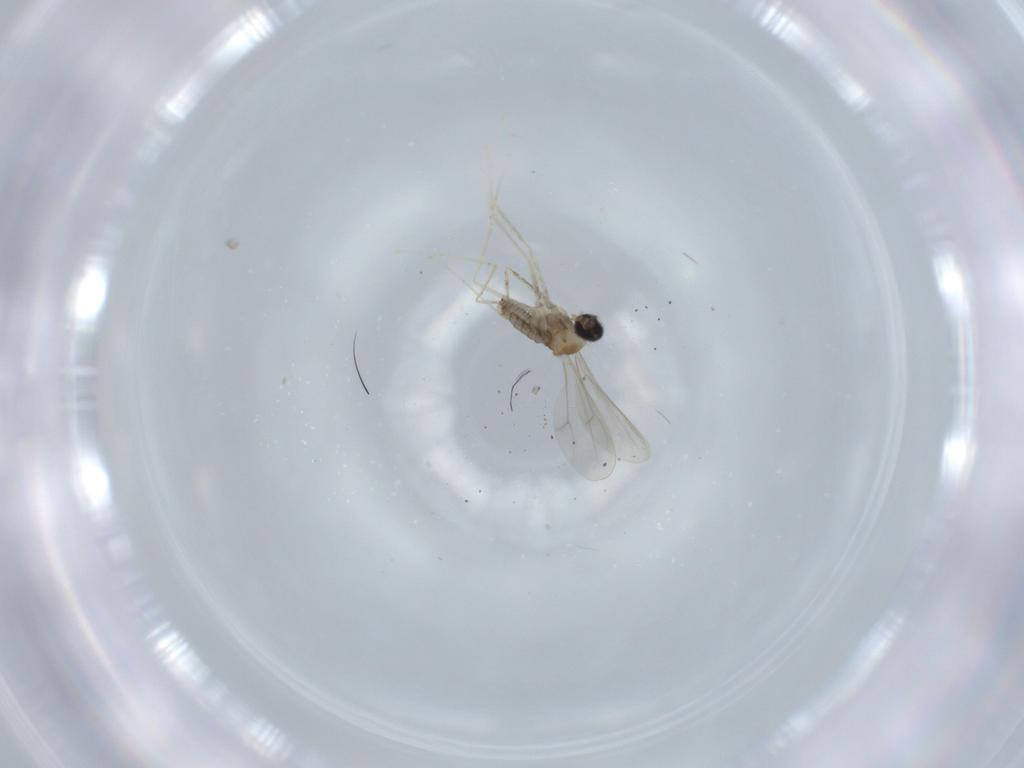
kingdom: Animalia
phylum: Arthropoda
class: Insecta
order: Diptera
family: Cecidomyiidae
